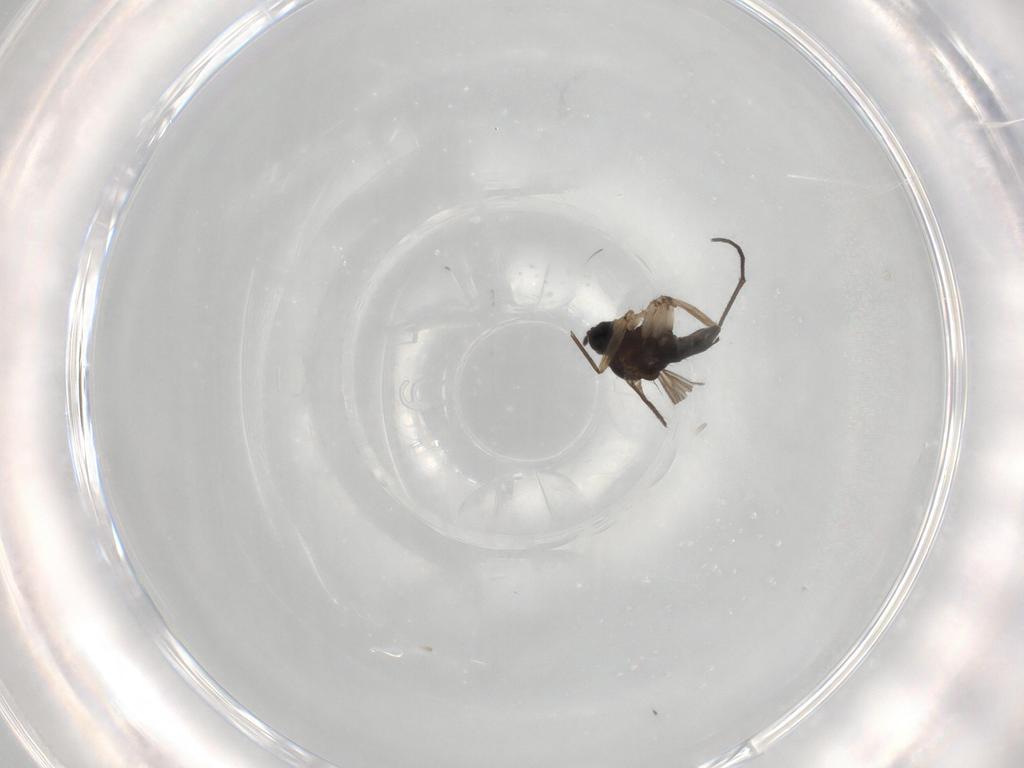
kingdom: Animalia
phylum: Arthropoda
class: Insecta
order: Diptera
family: Sciaridae
